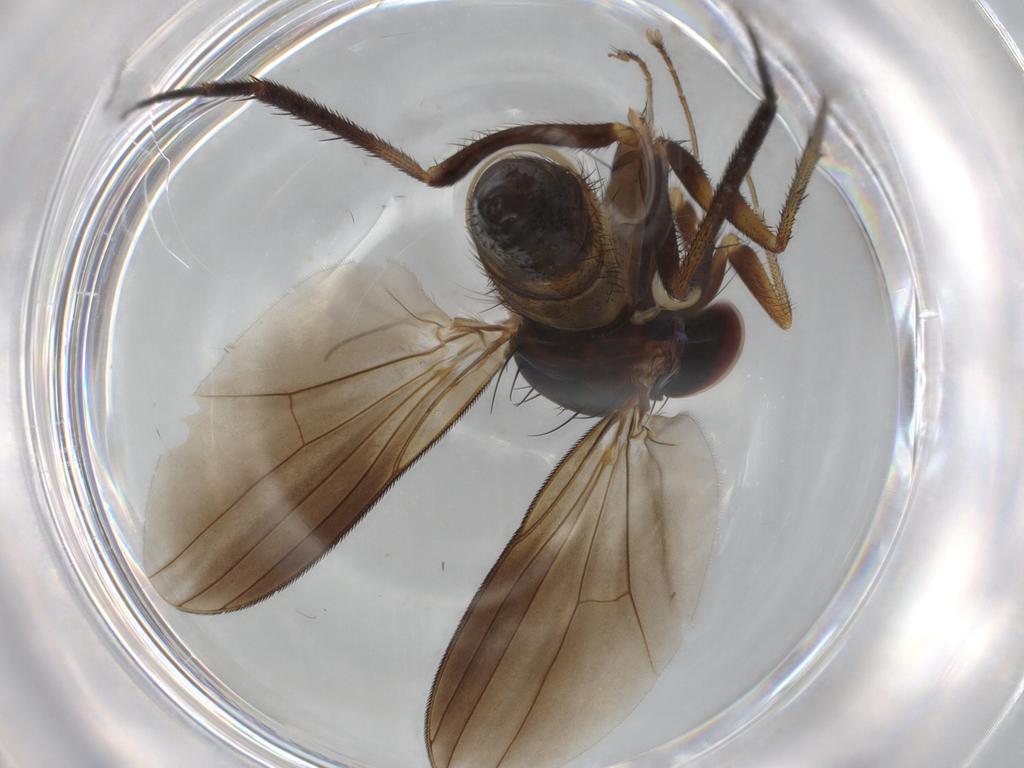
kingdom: Animalia
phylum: Arthropoda
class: Insecta
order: Diptera
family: Dolichopodidae
